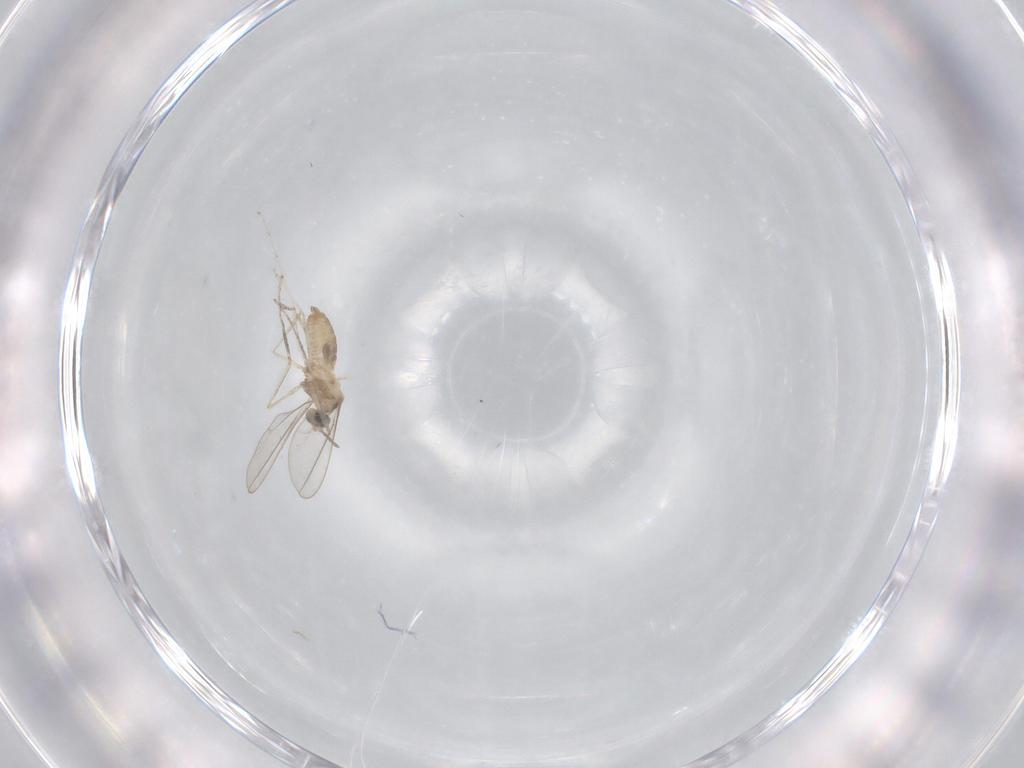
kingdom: Animalia
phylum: Arthropoda
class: Insecta
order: Diptera
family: Cecidomyiidae
